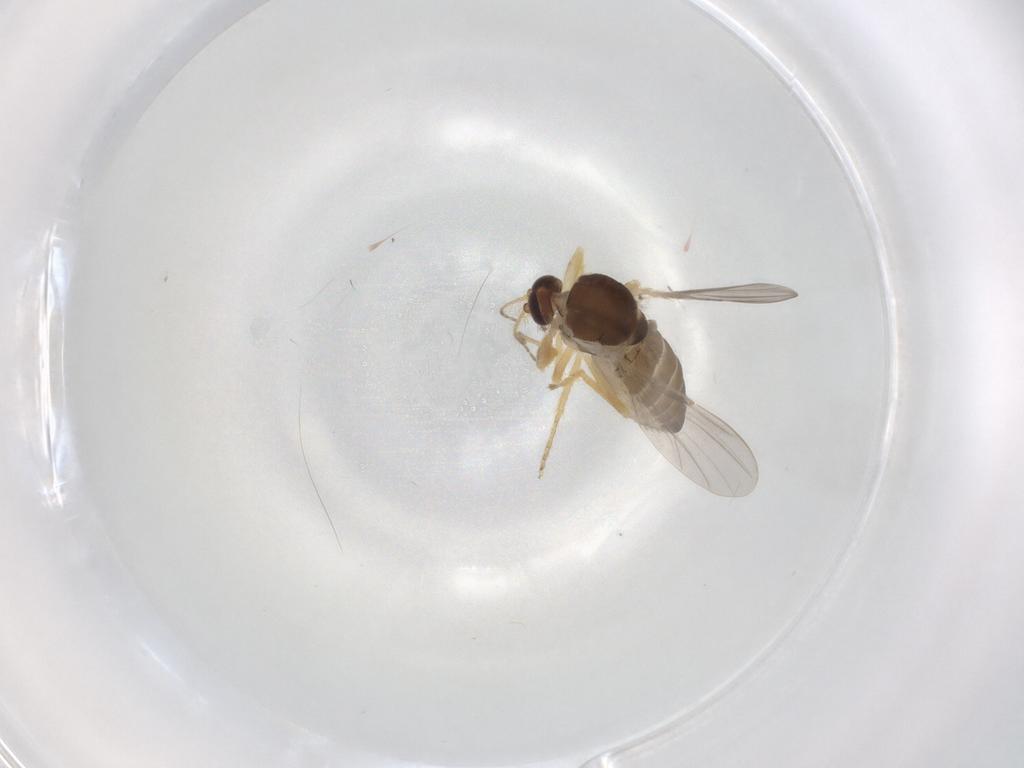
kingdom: Animalia
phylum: Arthropoda
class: Insecta
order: Diptera
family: Ceratopogonidae
